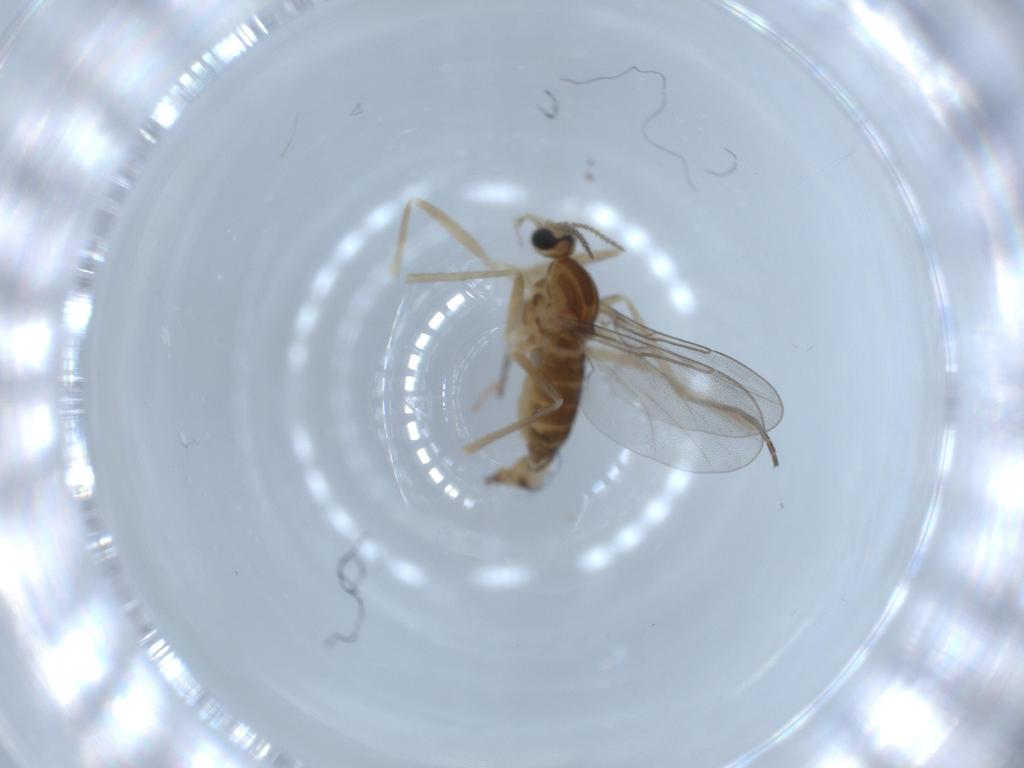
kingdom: Animalia
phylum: Arthropoda
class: Insecta
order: Diptera
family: Cecidomyiidae
